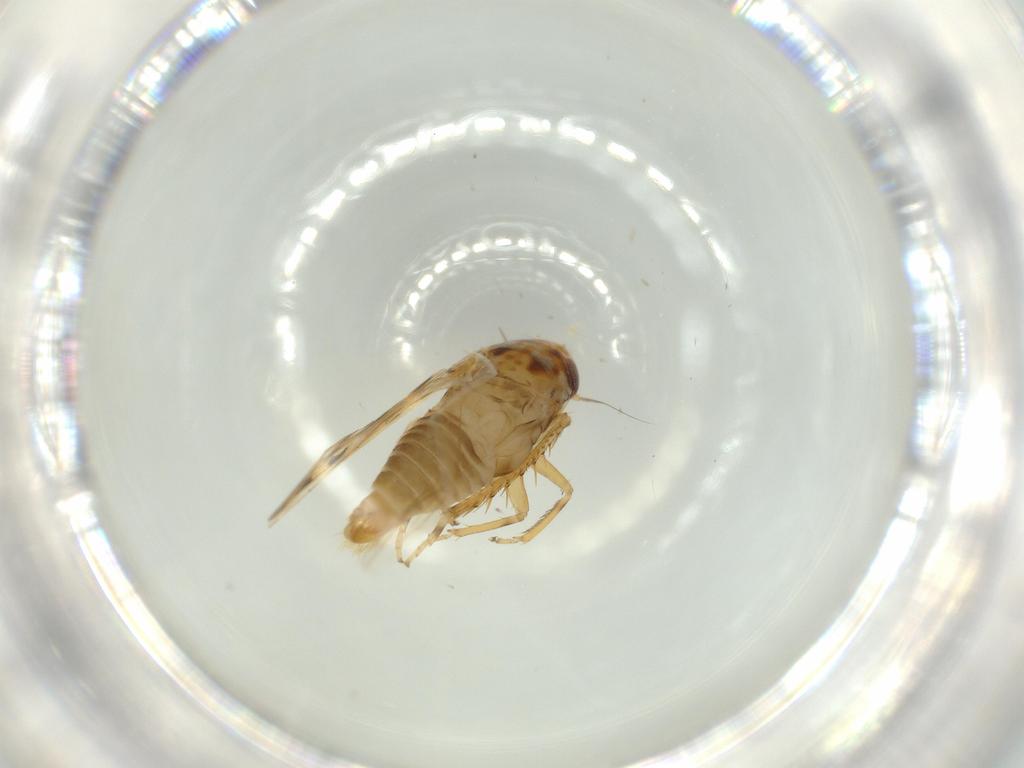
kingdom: Animalia
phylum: Arthropoda
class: Insecta
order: Hemiptera
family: Cicadellidae
